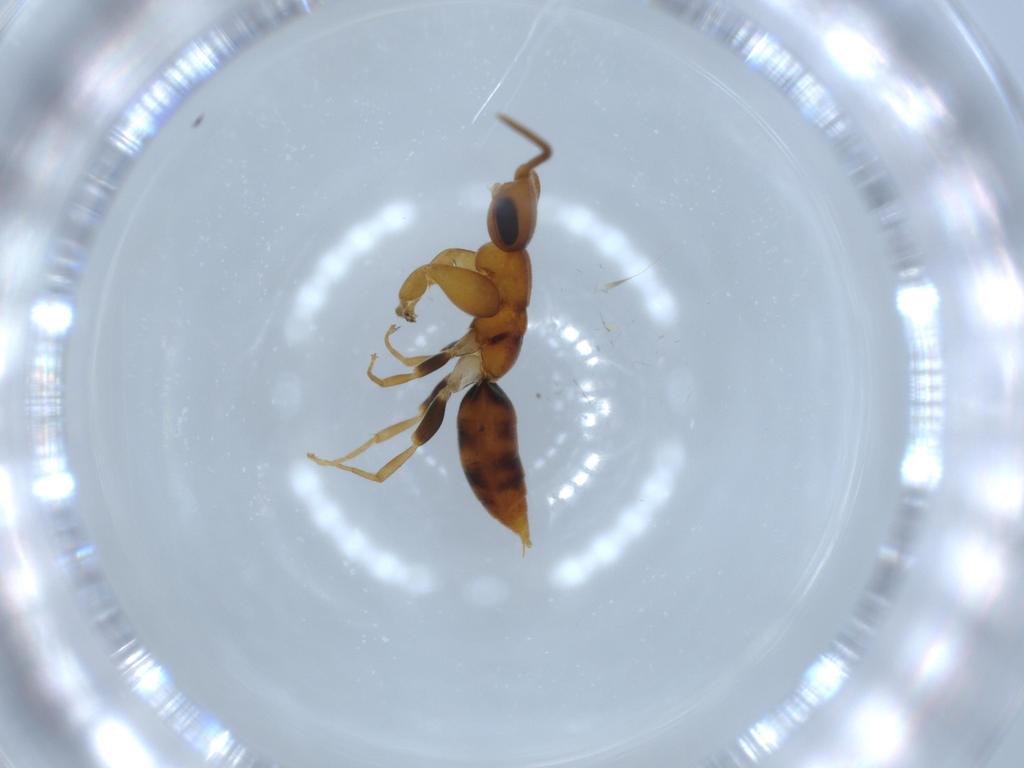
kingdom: Animalia
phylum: Arthropoda
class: Insecta
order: Hymenoptera
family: Sclerogibbidae
